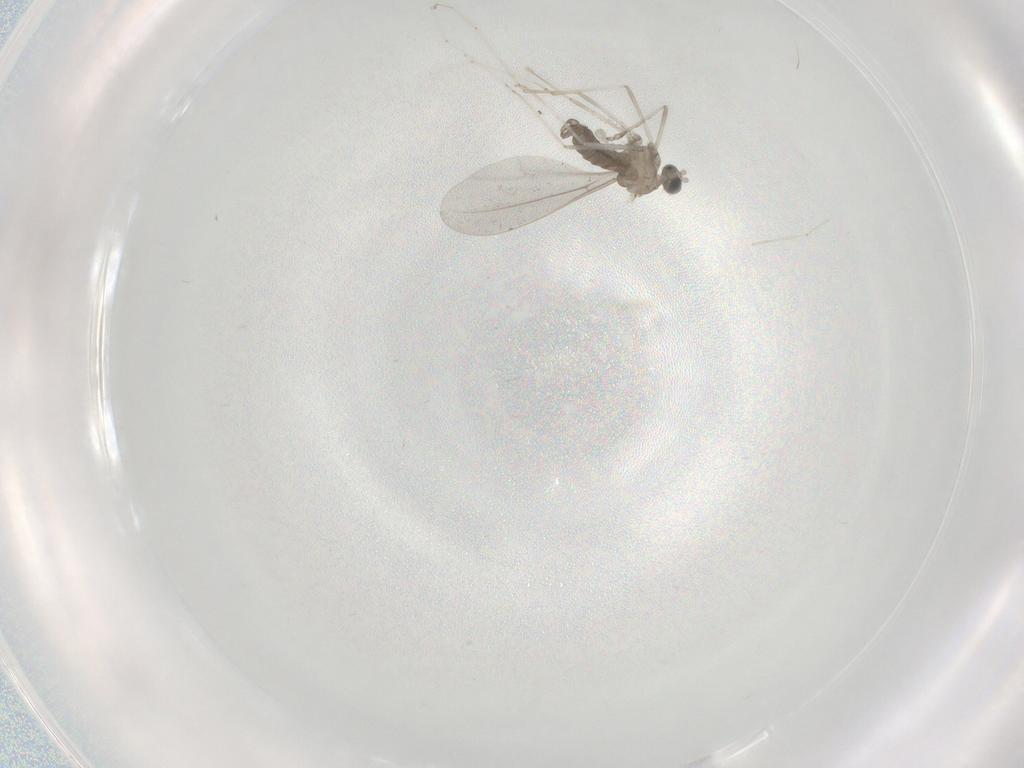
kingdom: Animalia
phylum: Arthropoda
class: Insecta
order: Diptera
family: Cecidomyiidae
